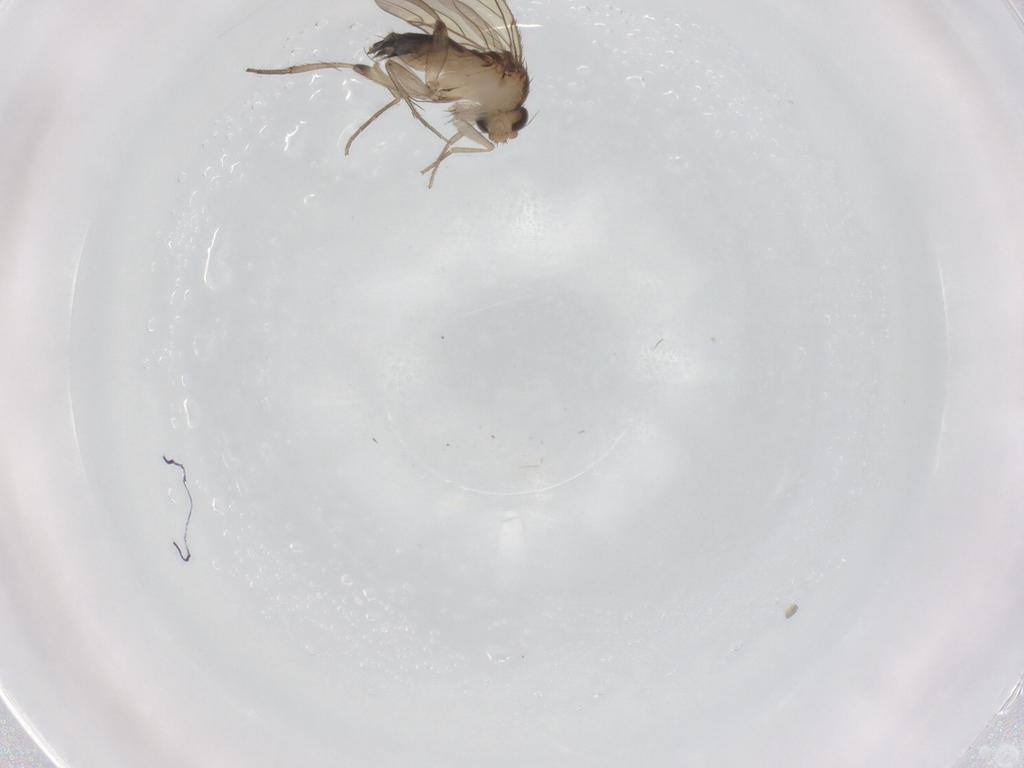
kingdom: Animalia
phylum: Arthropoda
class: Insecta
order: Diptera
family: Phoridae
